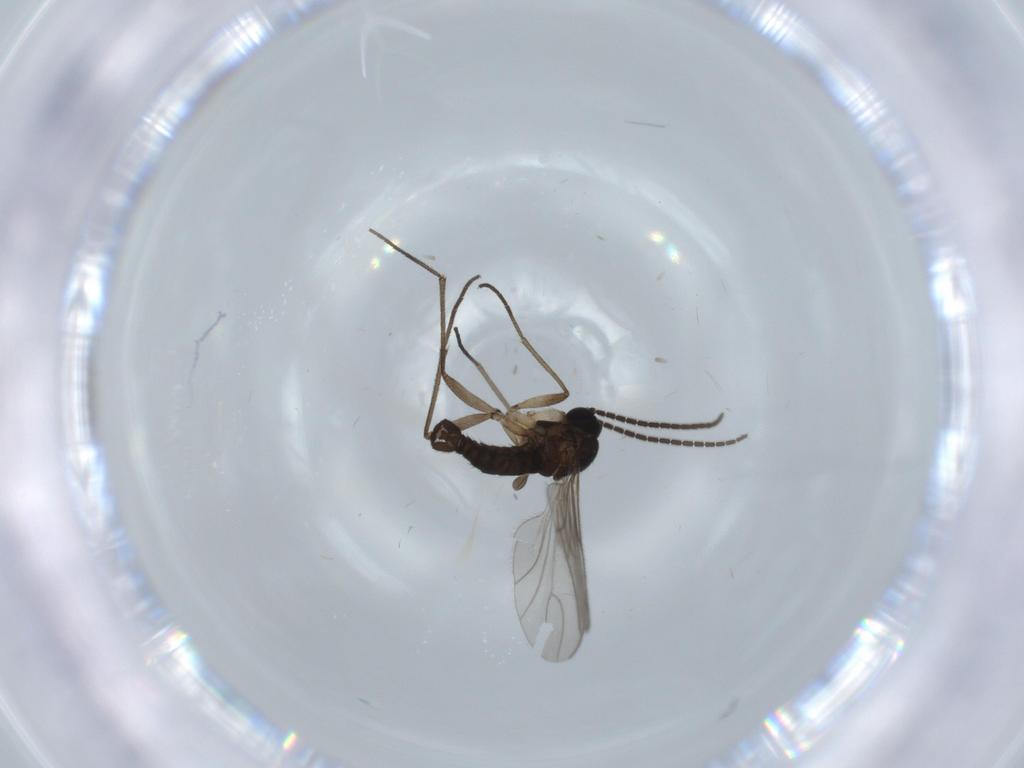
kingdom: Animalia
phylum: Arthropoda
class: Insecta
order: Diptera
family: Sciaridae
